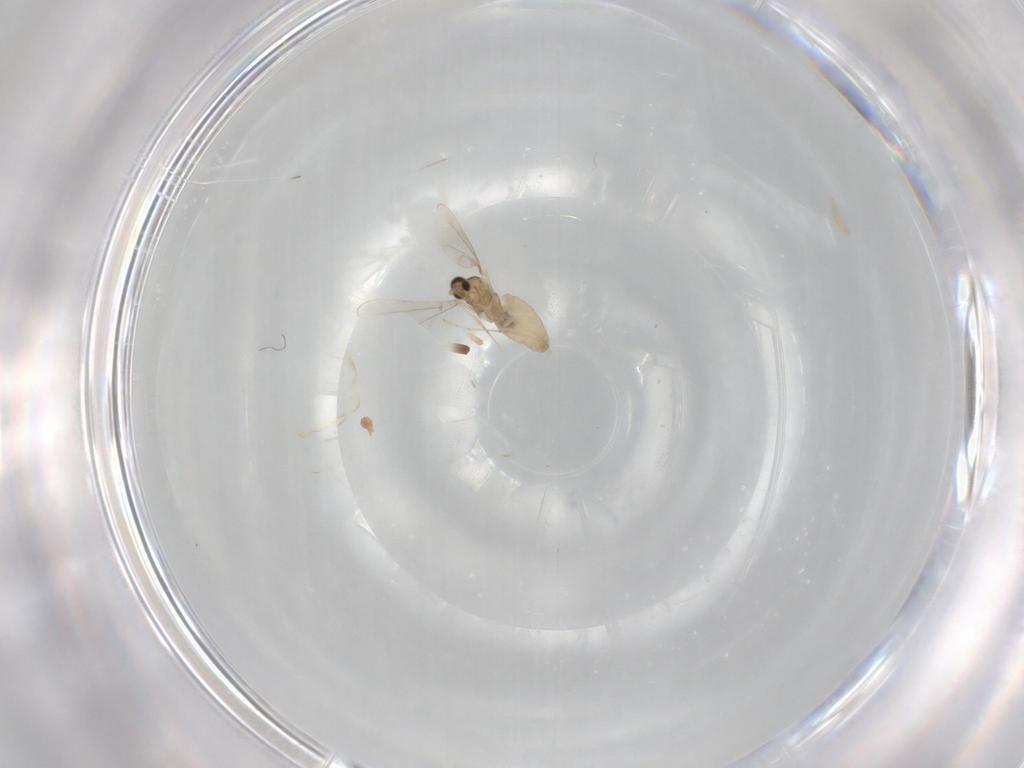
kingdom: Animalia
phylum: Arthropoda
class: Insecta
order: Diptera
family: Cecidomyiidae
